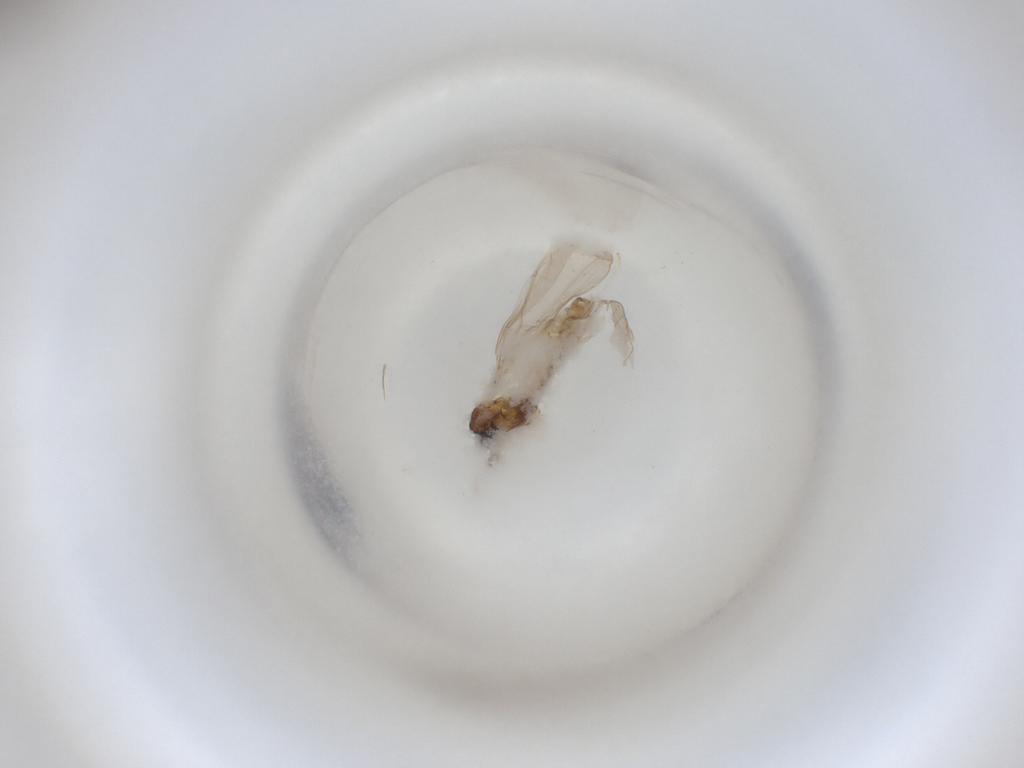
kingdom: Animalia
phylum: Arthropoda
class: Insecta
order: Diptera
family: Cecidomyiidae
